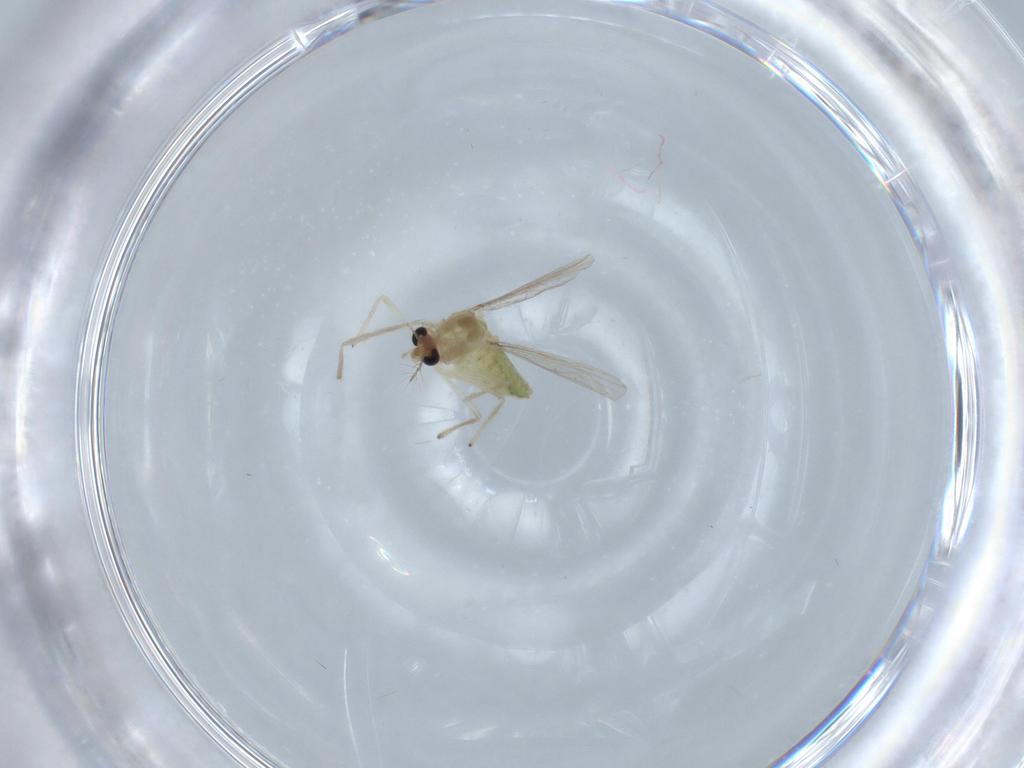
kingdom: Animalia
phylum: Arthropoda
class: Insecta
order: Diptera
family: Chironomidae
